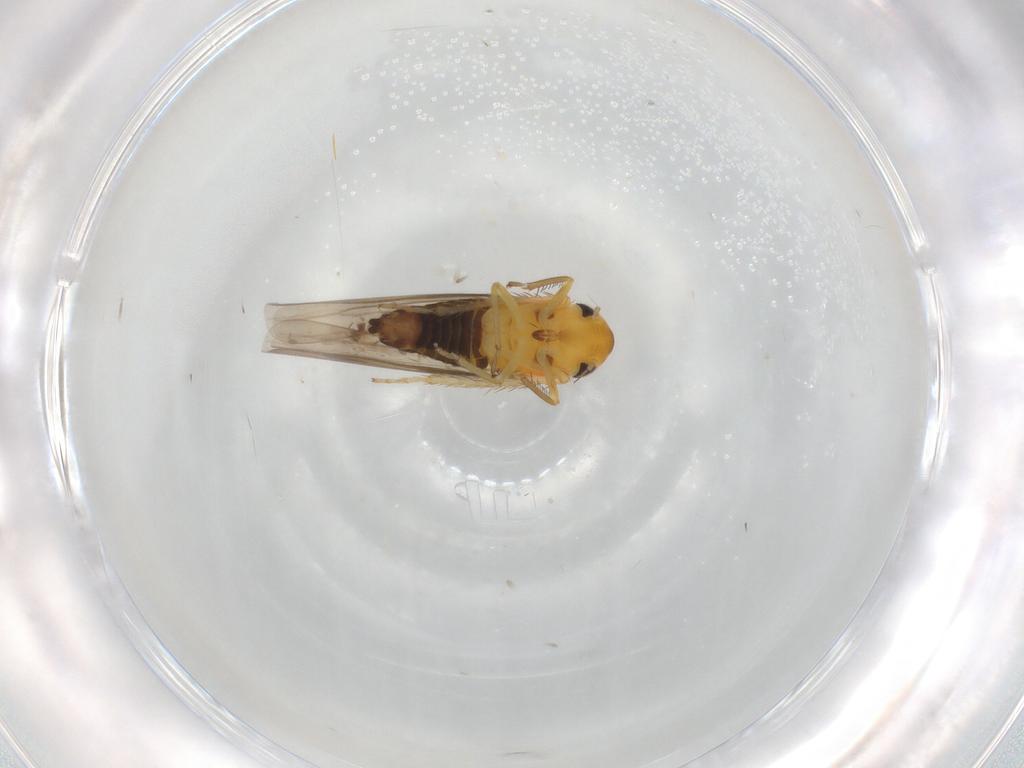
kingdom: Animalia
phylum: Arthropoda
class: Insecta
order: Hemiptera
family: Cicadellidae
